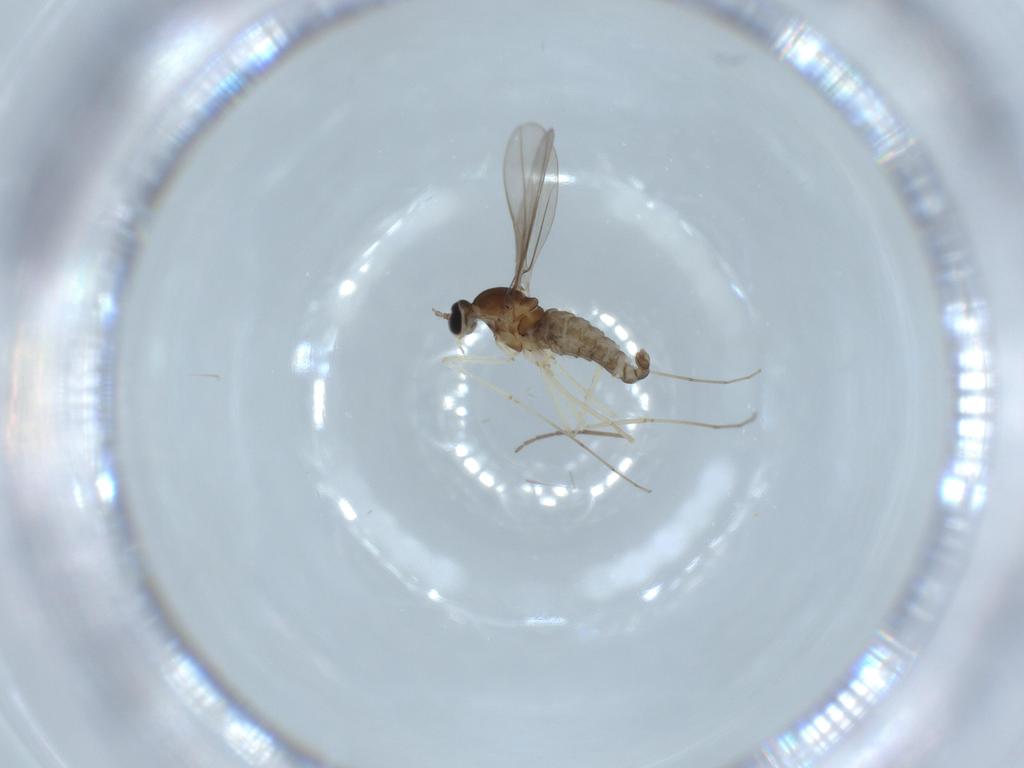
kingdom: Animalia
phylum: Arthropoda
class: Insecta
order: Diptera
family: Cecidomyiidae
